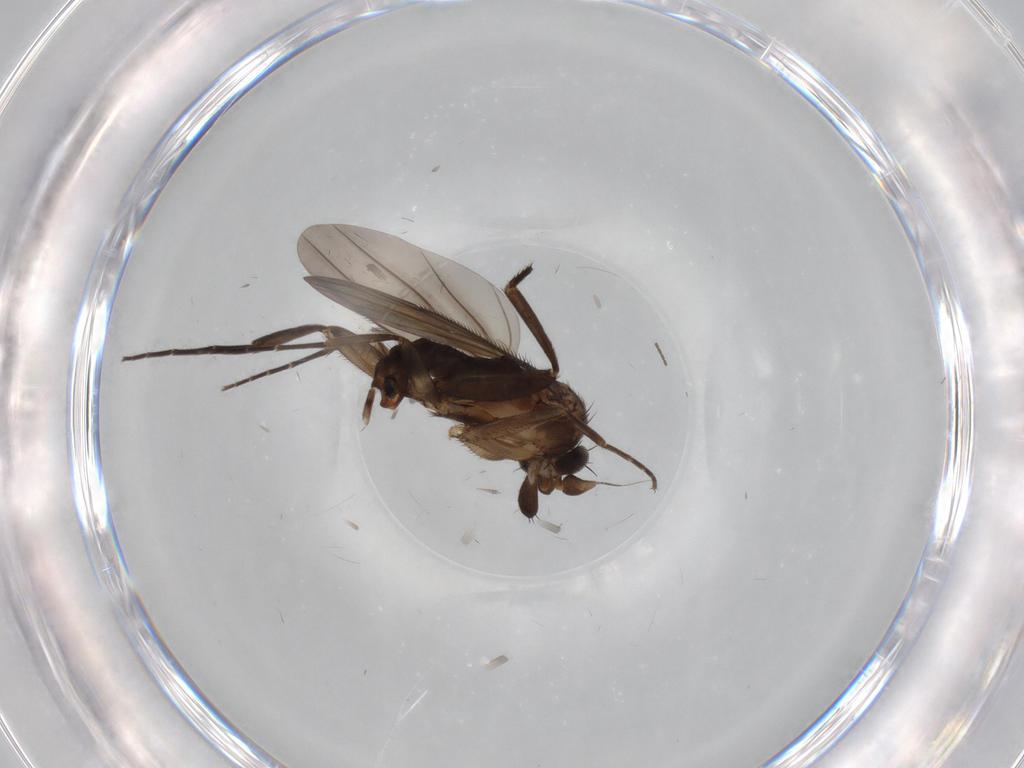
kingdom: Animalia
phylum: Arthropoda
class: Insecta
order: Diptera
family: Phoridae
